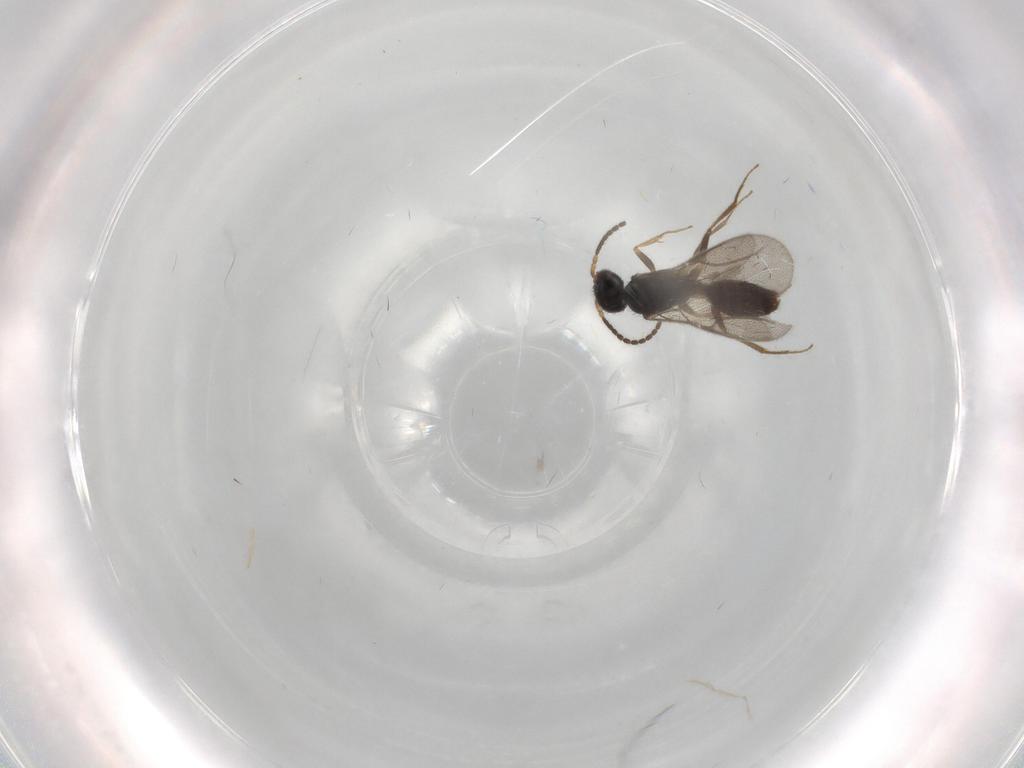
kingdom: Animalia
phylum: Arthropoda
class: Insecta
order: Hymenoptera
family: Bethylidae
